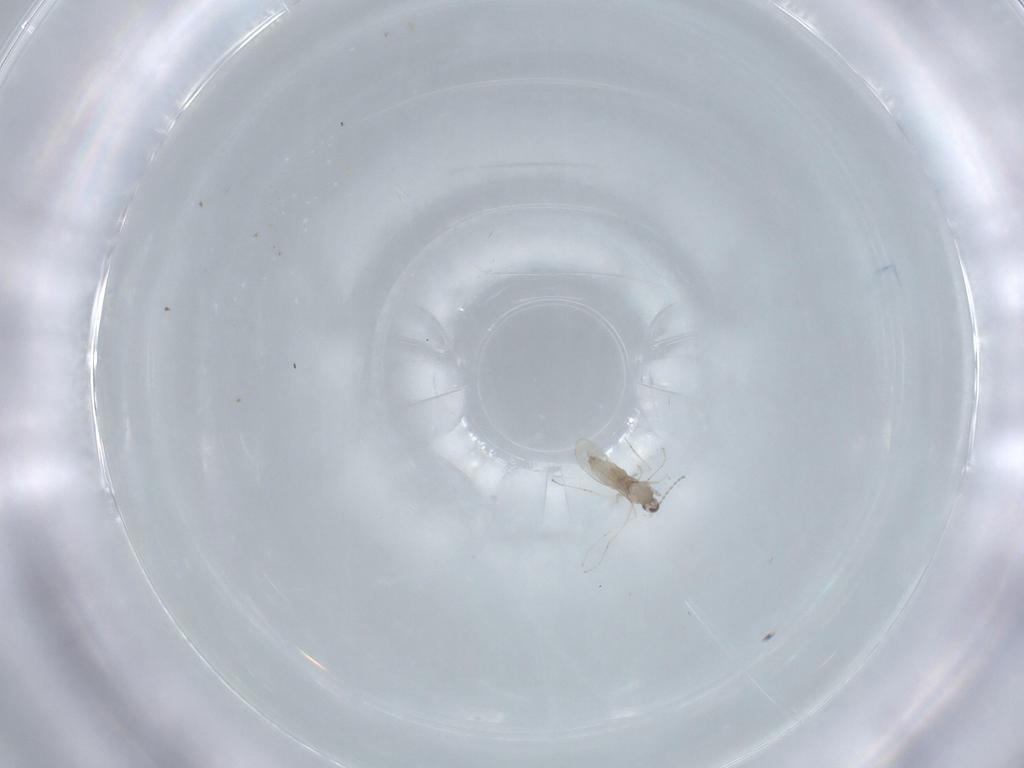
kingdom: Animalia
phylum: Arthropoda
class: Insecta
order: Diptera
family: Cecidomyiidae
